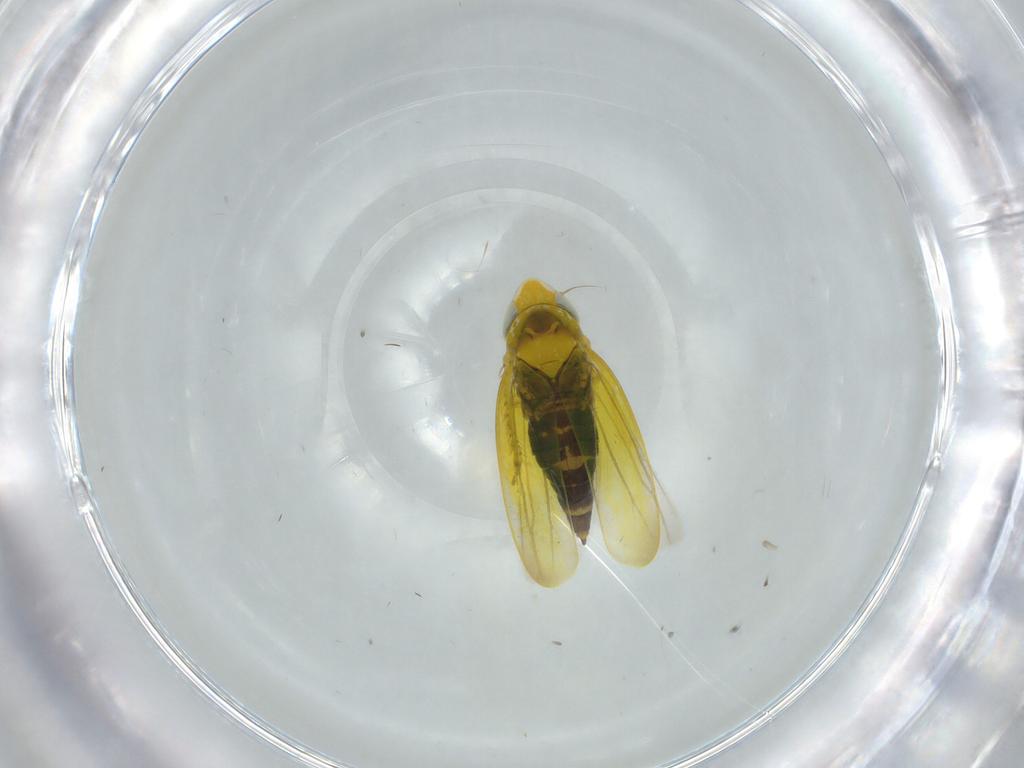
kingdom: Animalia
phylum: Arthropoda
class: Insecta
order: Hemiptera
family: Cicadellidae
